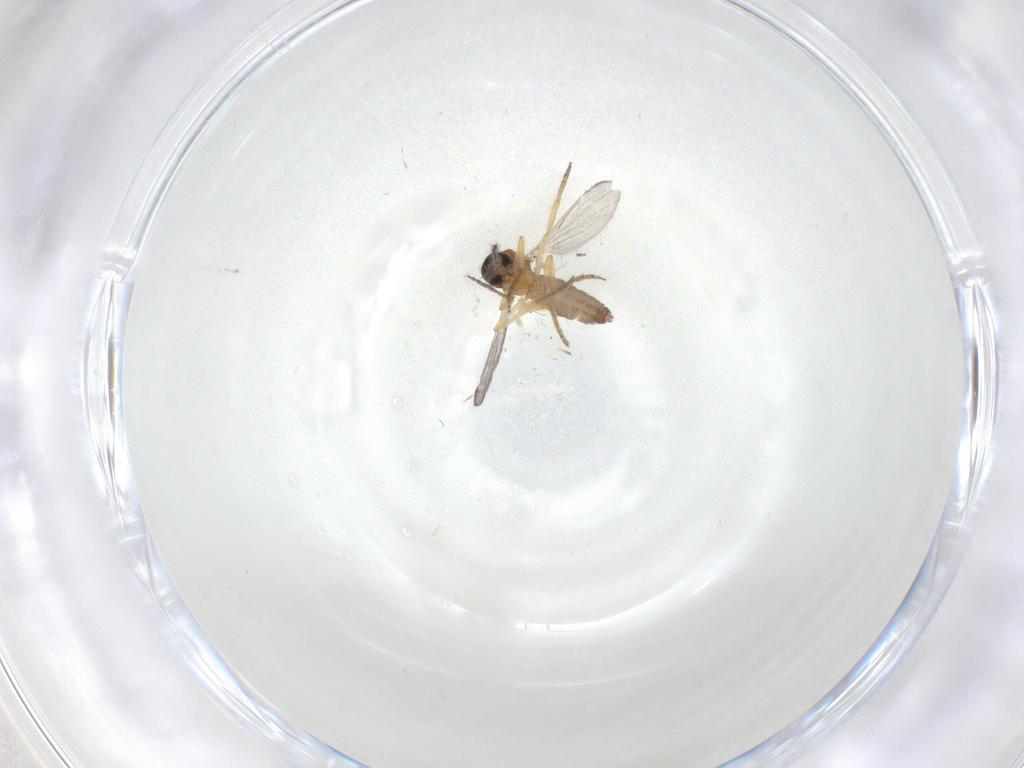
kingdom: Animalia
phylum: Arthropoda
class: Insecta
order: Diptera
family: Ceratopogonidae
